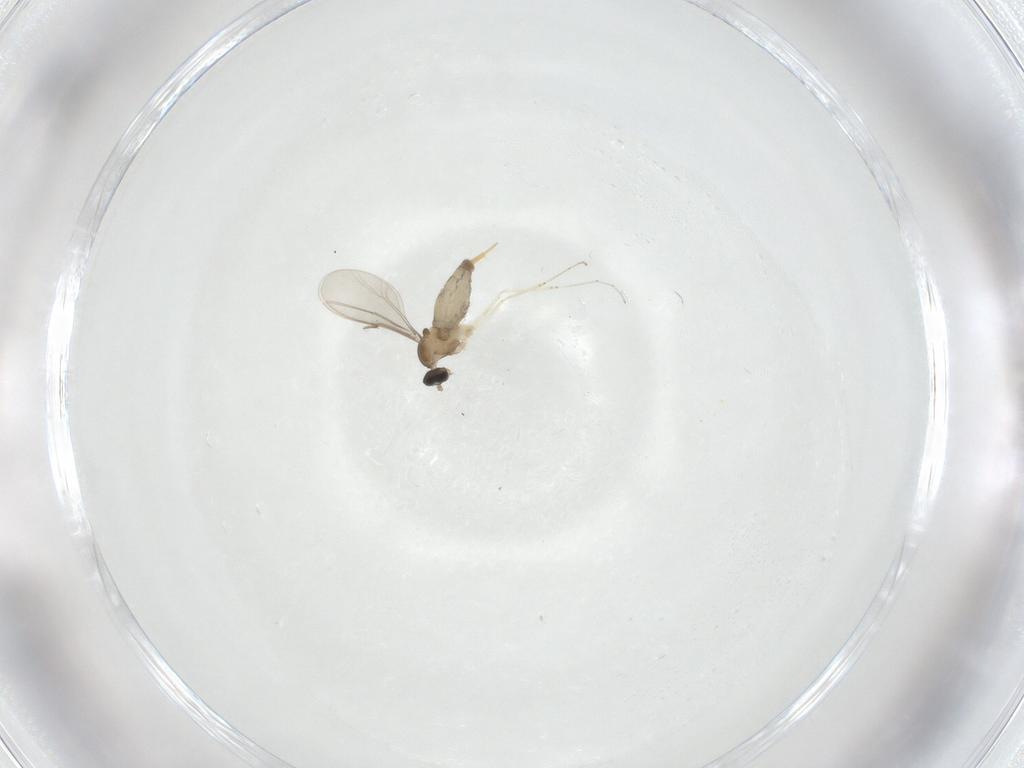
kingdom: Animalia
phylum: Arthropoda
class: Insecta
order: Diptera
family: Cecidomyiidae
